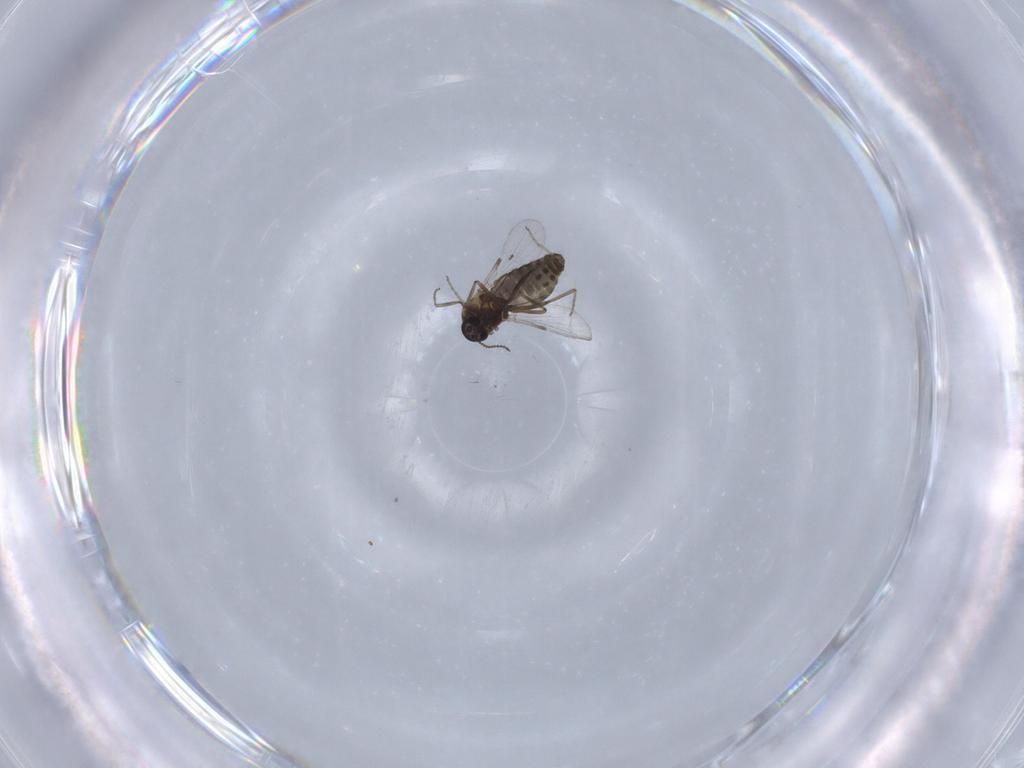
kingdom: Animalia
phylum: Arthropoda
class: Insecta
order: Diptera
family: Ceratopogonidae
